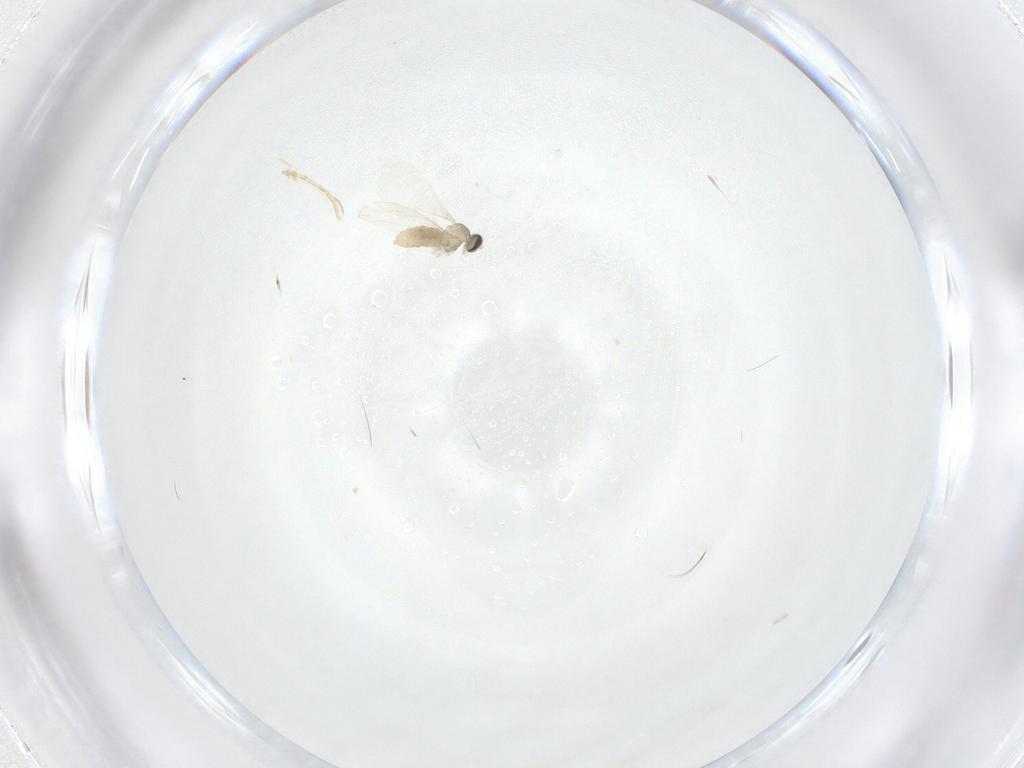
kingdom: Animalia
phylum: Arthropoda
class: Insecta
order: Diptera
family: Cecidomyiidae
